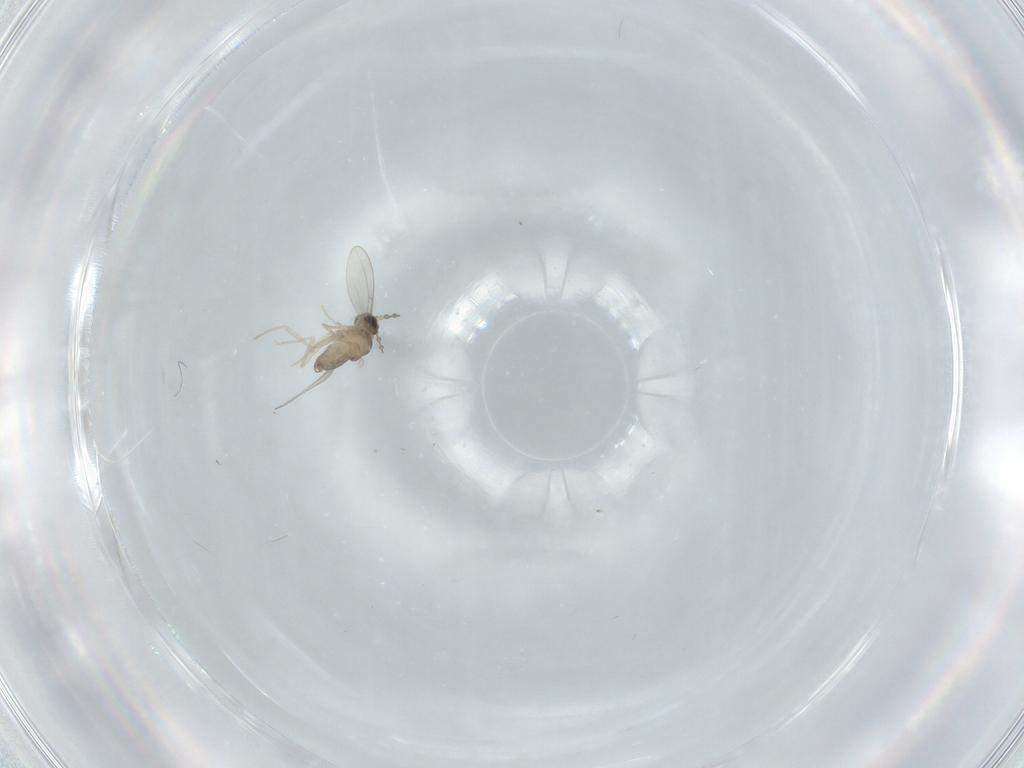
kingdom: Animalia
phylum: Arthropoda
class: Insecta
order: Diptera
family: Cecidomyiidae
